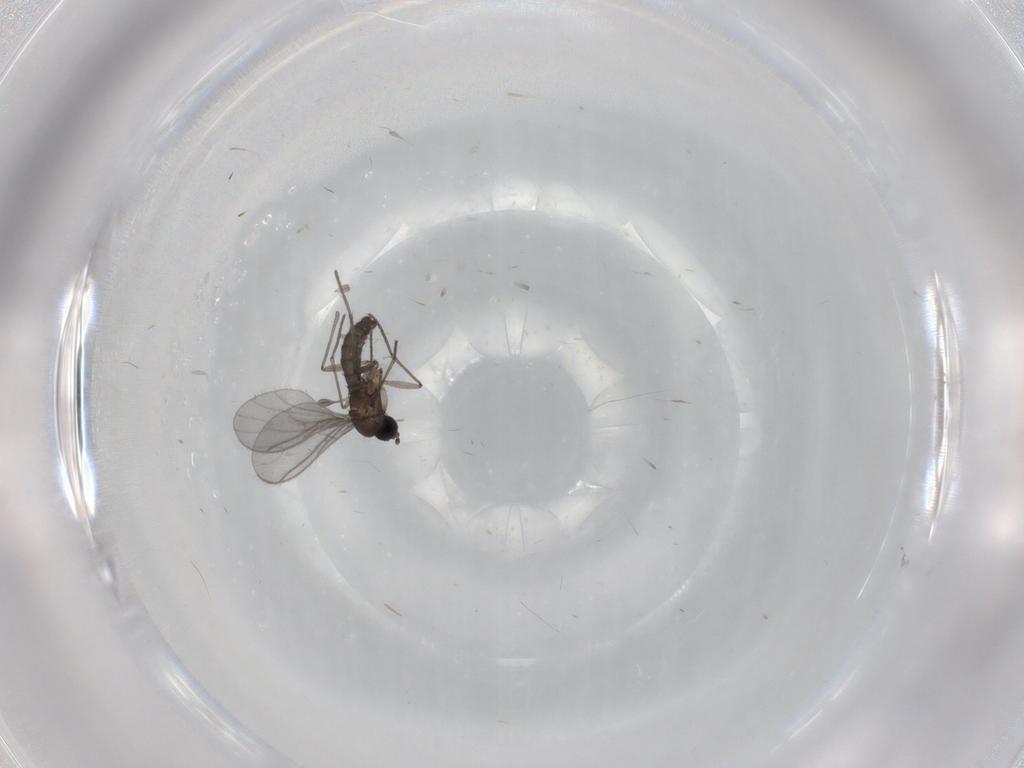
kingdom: Animalia
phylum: Arthropoda
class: Insecta
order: Diptera
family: Sciaridae
